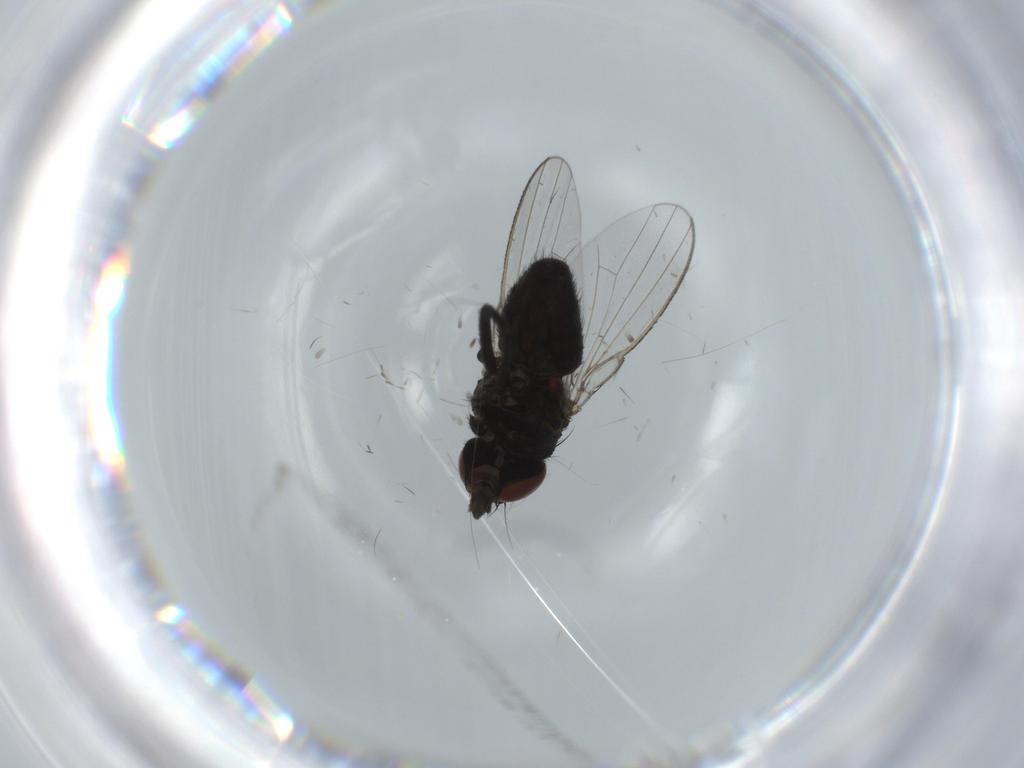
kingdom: Animalia
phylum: Arthropoda
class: Insecta
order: Diptera
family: Milichiidae
